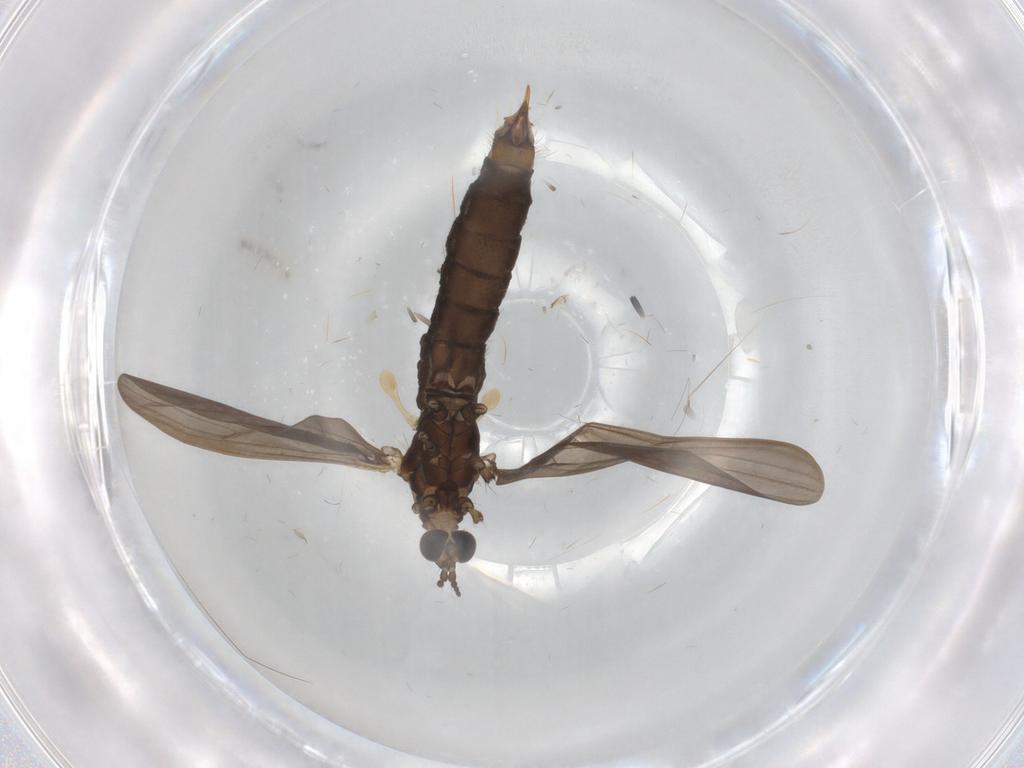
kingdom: Animalia
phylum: Arthropoda
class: Insecta
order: Diptera
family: Limoniidae
